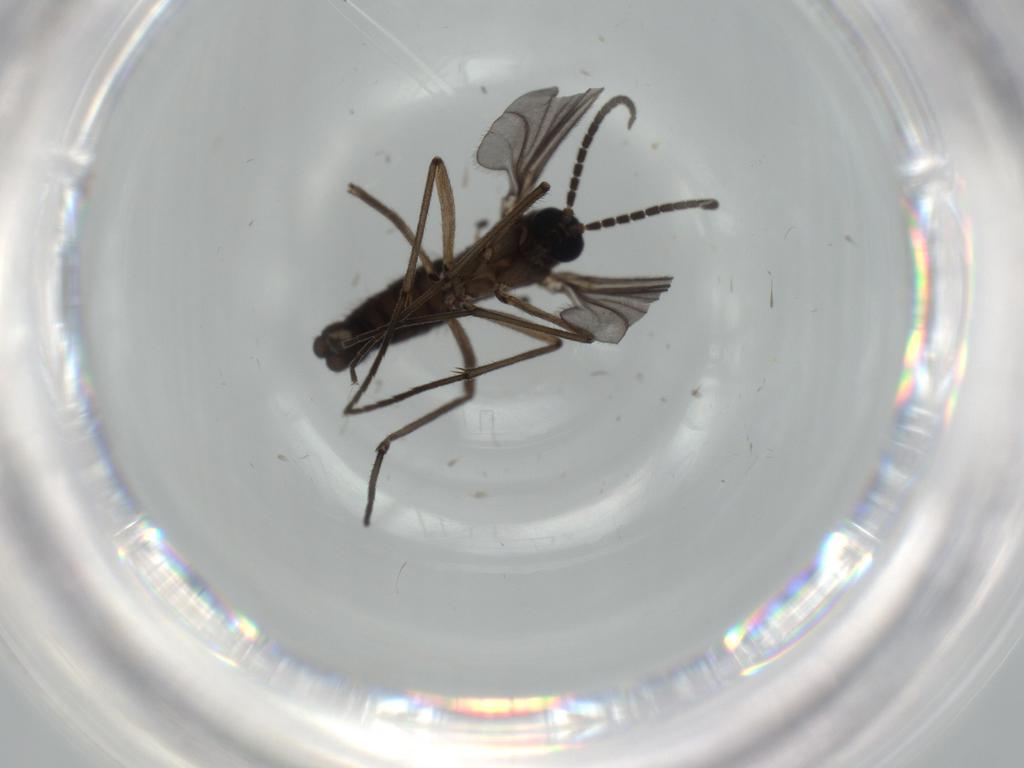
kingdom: Animalia
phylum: Arthropoda
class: Insecta
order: Diptera
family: Sciaridae
